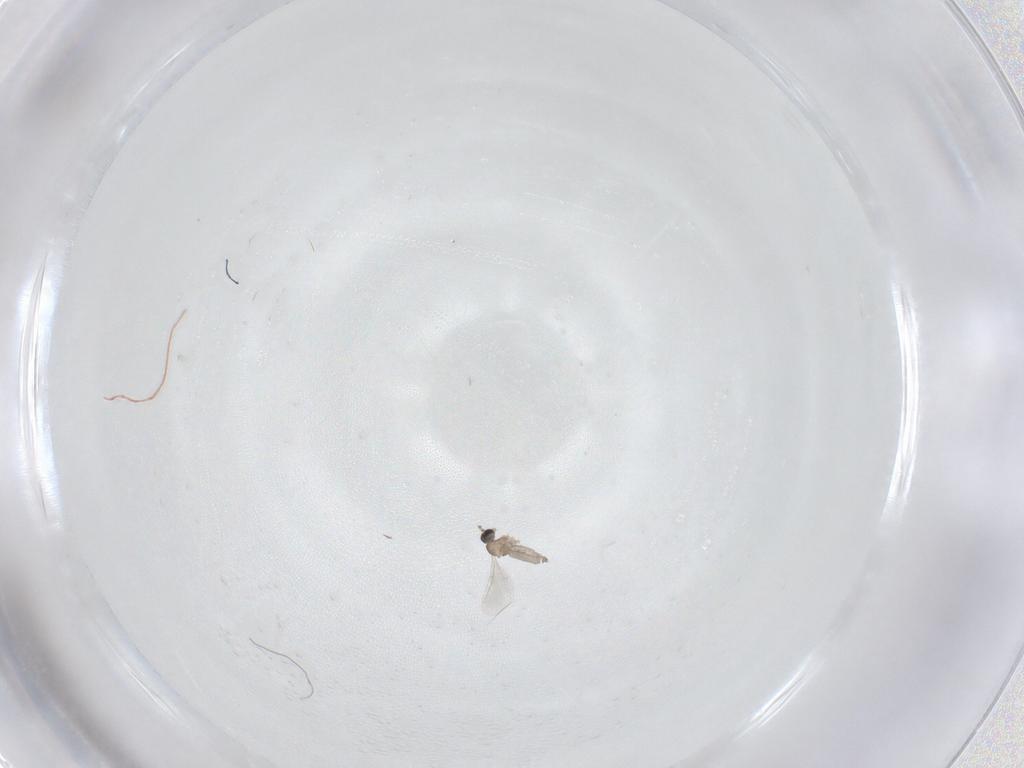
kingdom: Animalia
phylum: Arthropoda
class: Insecta
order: Diptera
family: Cecidomyiidae
